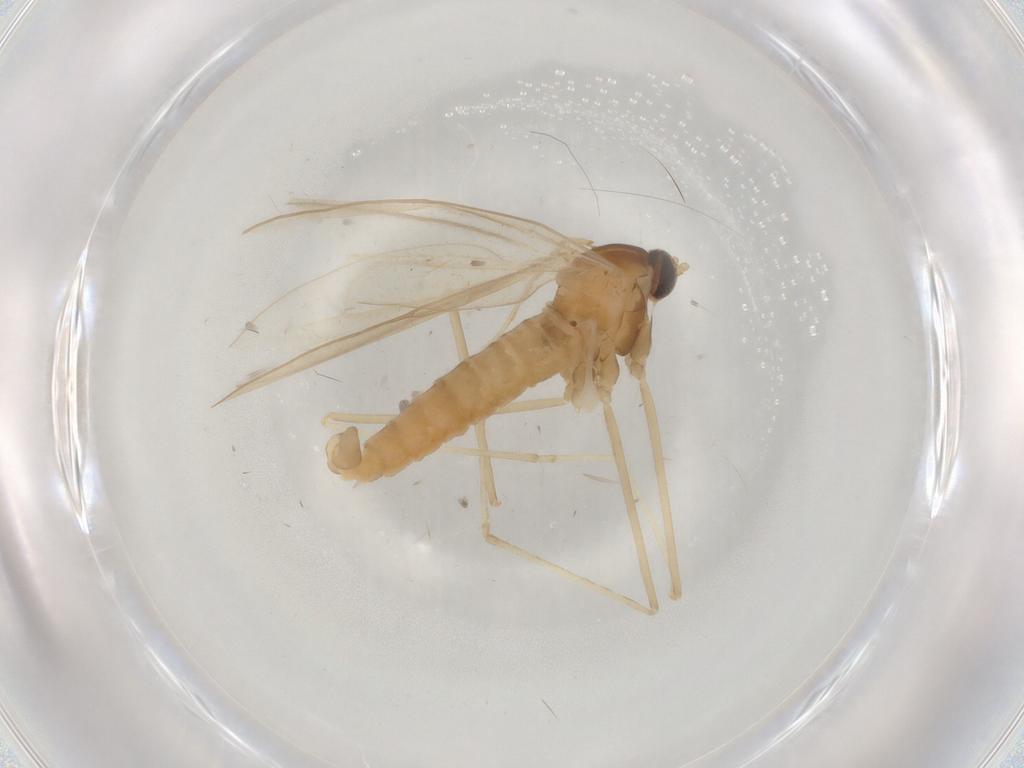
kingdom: Animalia
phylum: Arthropoda
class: Insecta
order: Diptera
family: Cecidomyiidae
